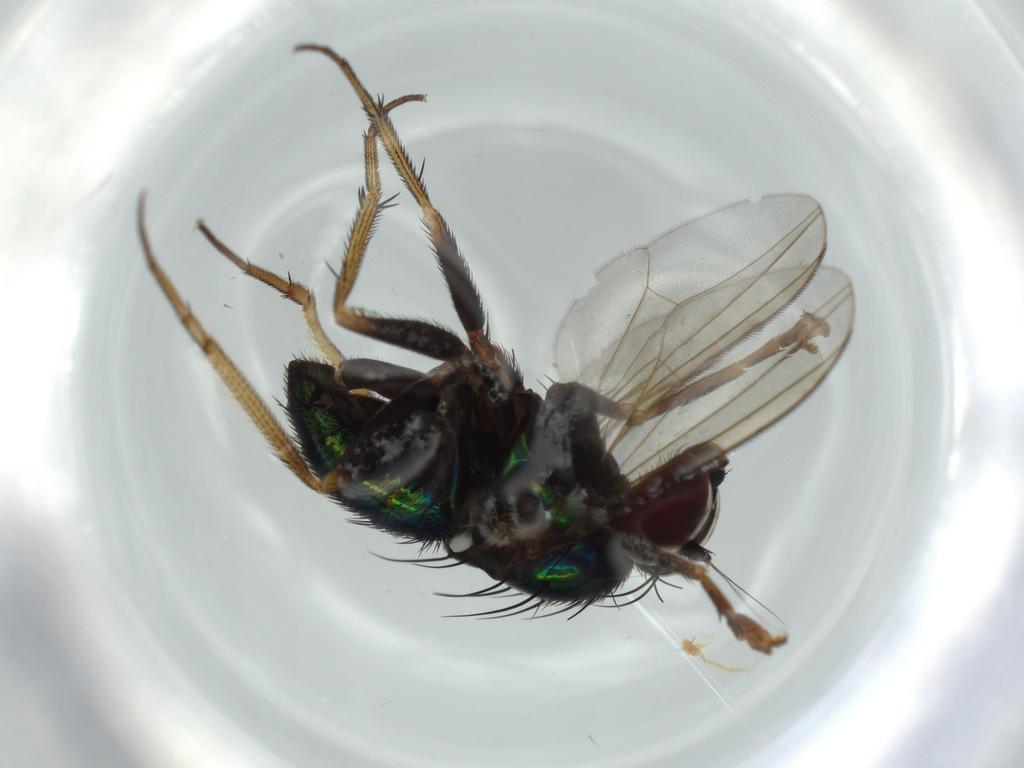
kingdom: Animalia
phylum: Arthropoda
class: Insecta
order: Diptera
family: Dolichopodidae
